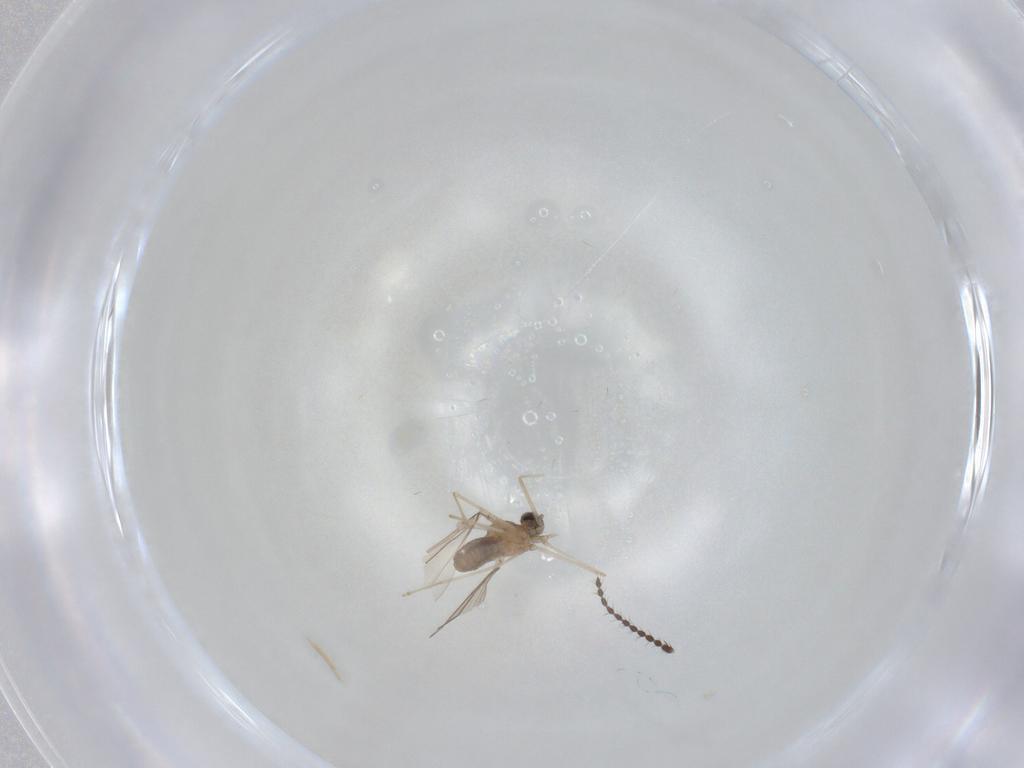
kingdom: Animalia
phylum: Arthropoda
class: Insecta
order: Diptera
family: Cecidomyiidae
